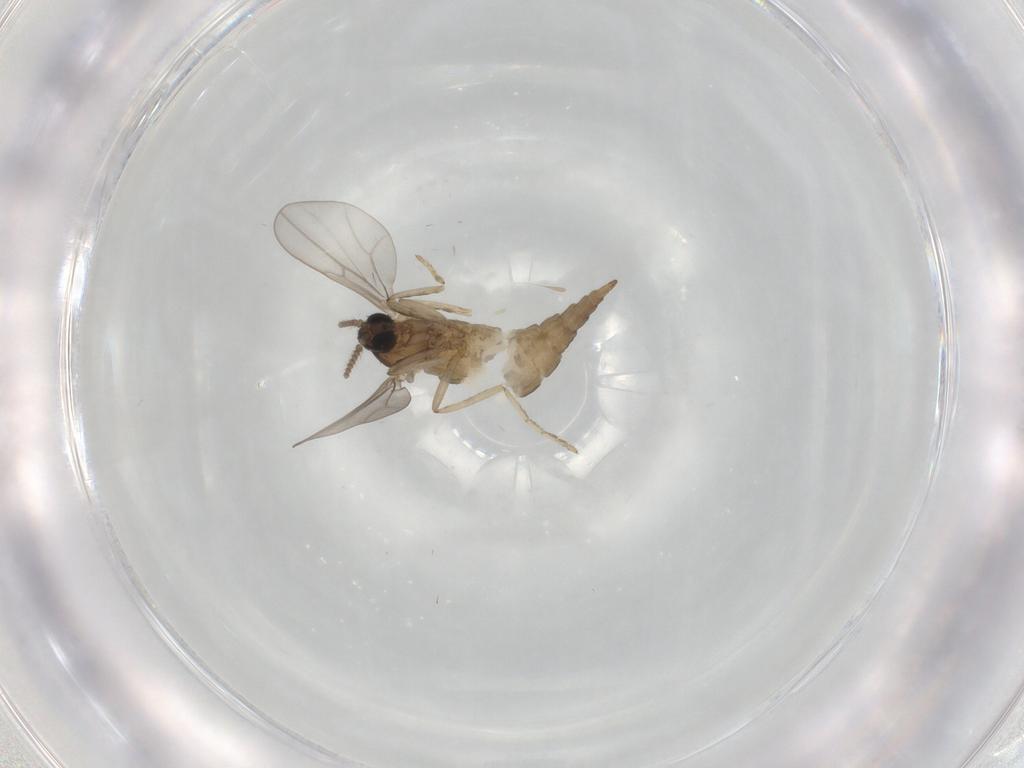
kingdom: Animalia
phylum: Arthropoda
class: Insecta
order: Diptera
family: Cecidomyiidae
